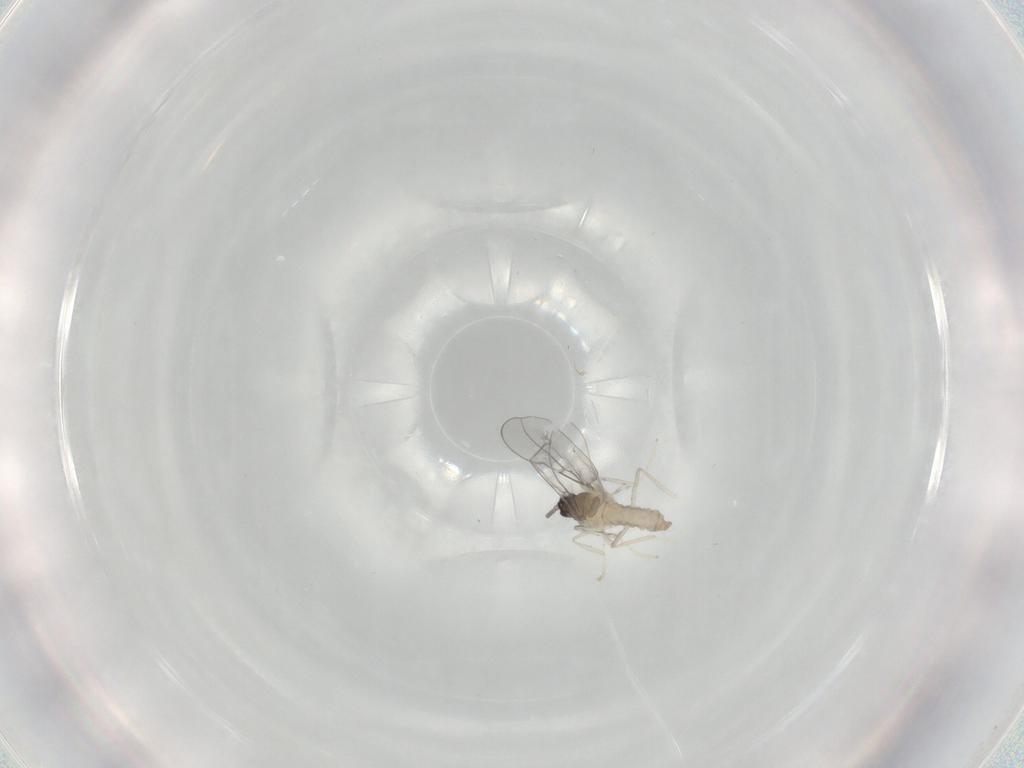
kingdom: Animalia
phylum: Arthropoda
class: Insecta
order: Diptera
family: Cecidomyiidae
